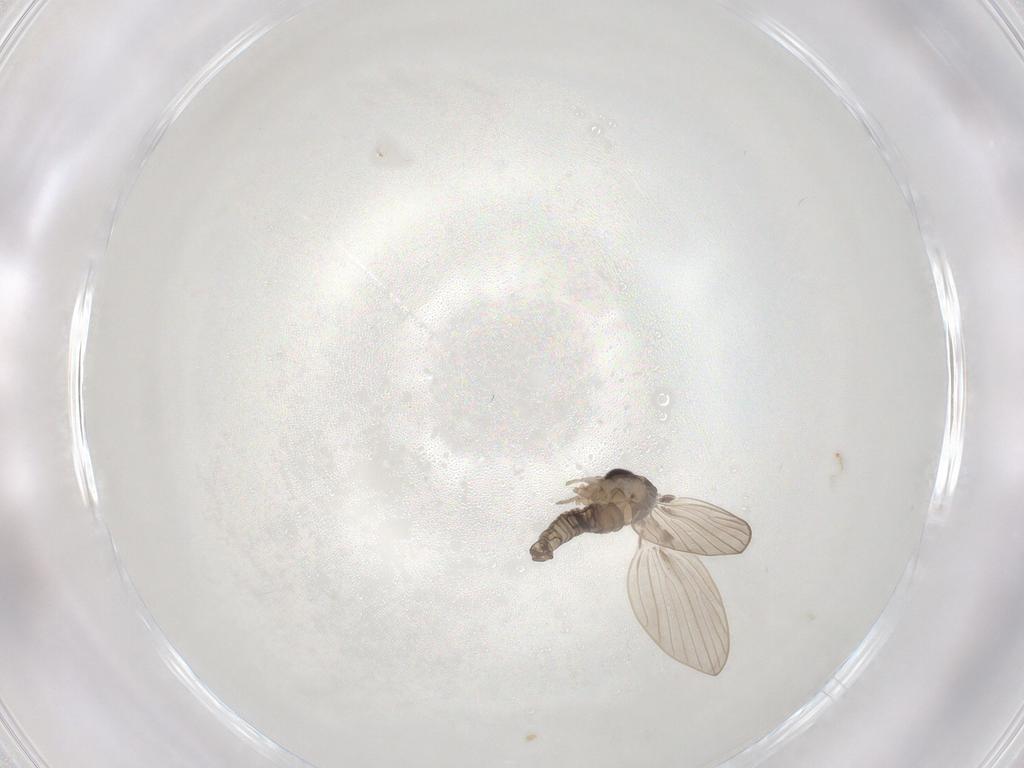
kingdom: Animalia
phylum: Arthropoda
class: Insecta
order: Diptera
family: Psychodidae
